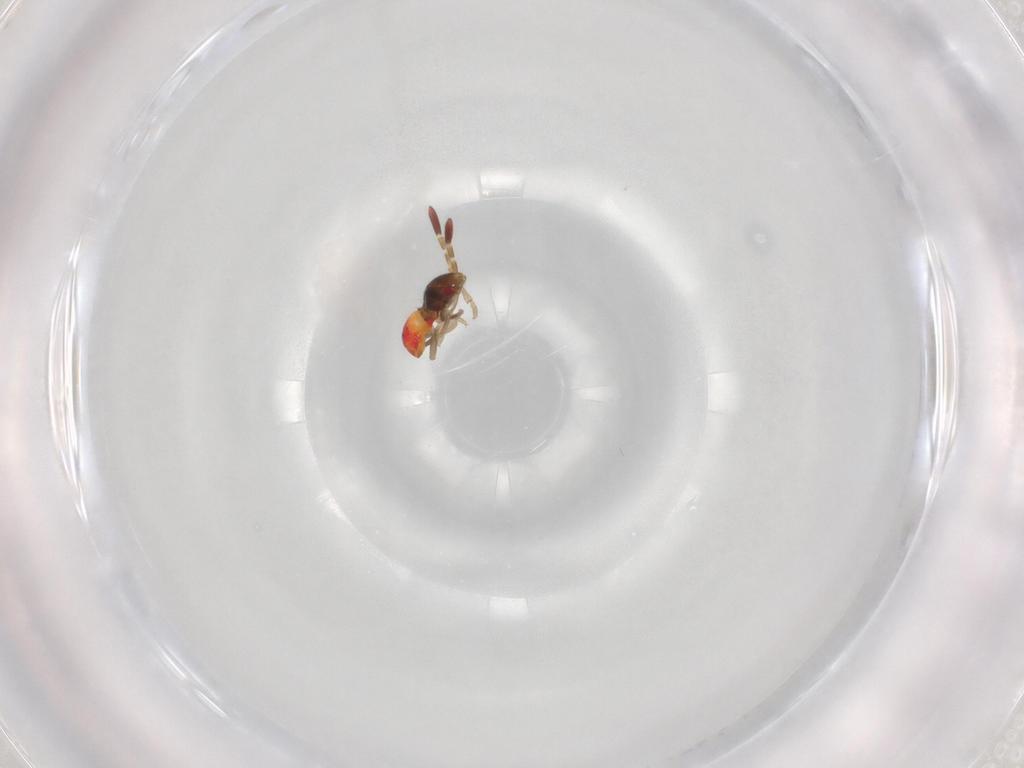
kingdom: Animalia
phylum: Arthropoda
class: Insecta
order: Hemiptera
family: Rhyparochromidae
